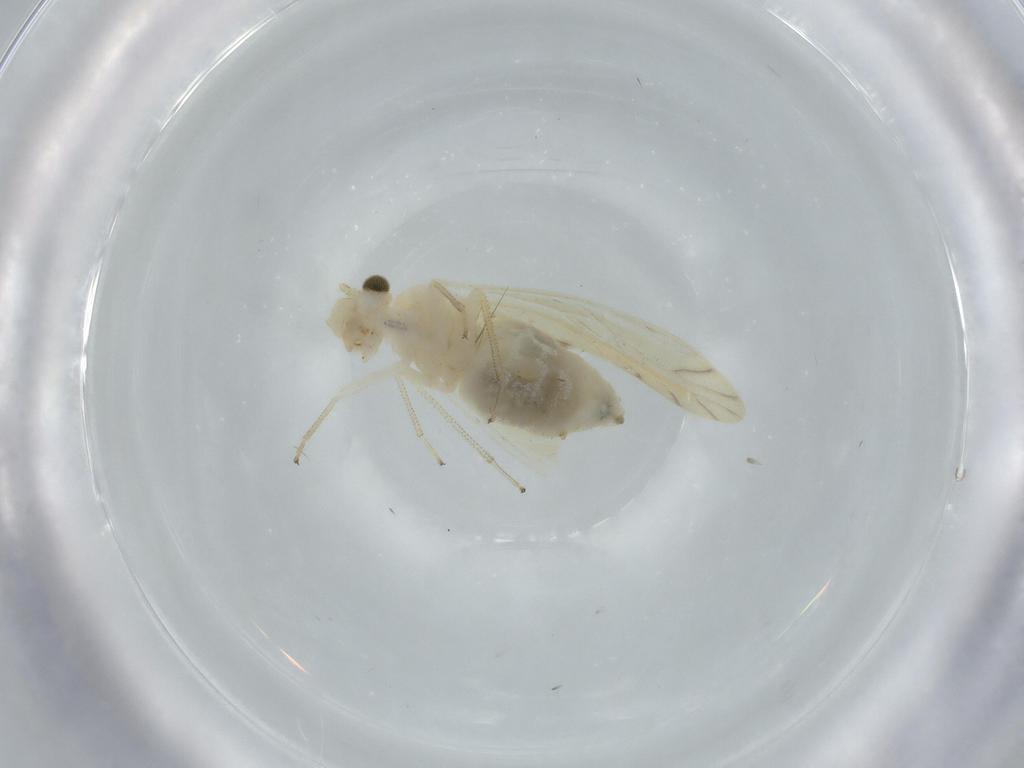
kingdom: Animalia
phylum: Arthropoda
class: Insecta
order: Psocodea
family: Caeciliusidae
